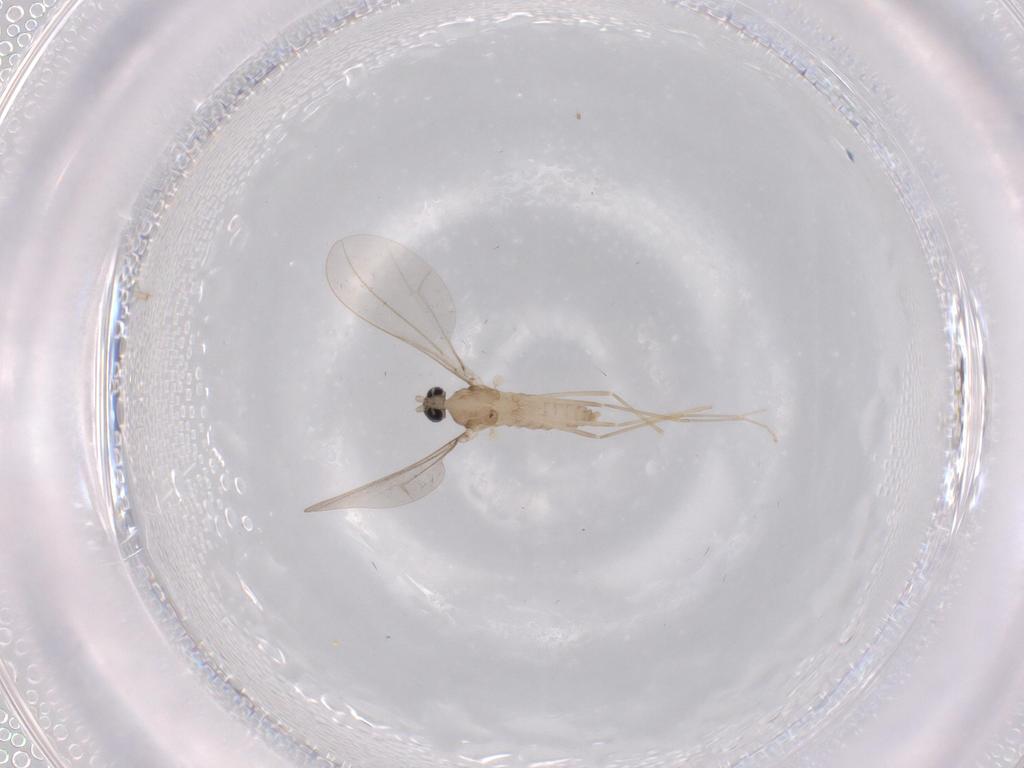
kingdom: Animalia
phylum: Arthropoda
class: Insecta
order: Diptera
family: Cecidomyiidae
